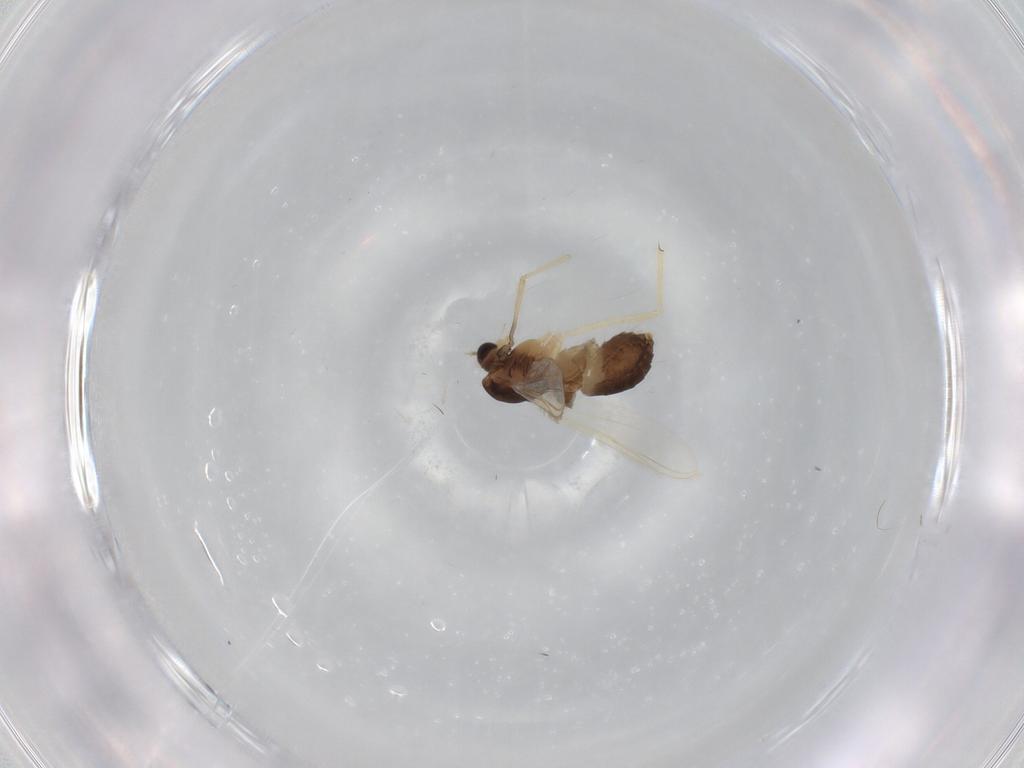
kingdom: Animalia
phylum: Arthropoda
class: Insecta
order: Diptera
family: Chironomidae
